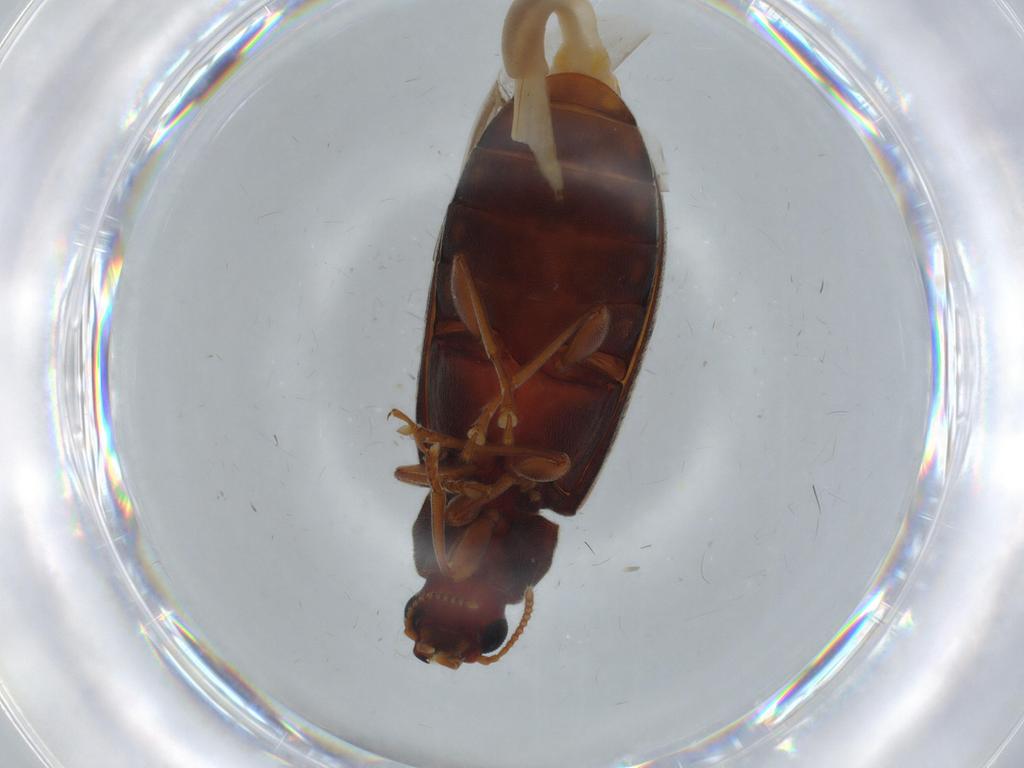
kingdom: Animalia
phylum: Arthropoda
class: Insecta
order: Coleoptera
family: Mycteridae
